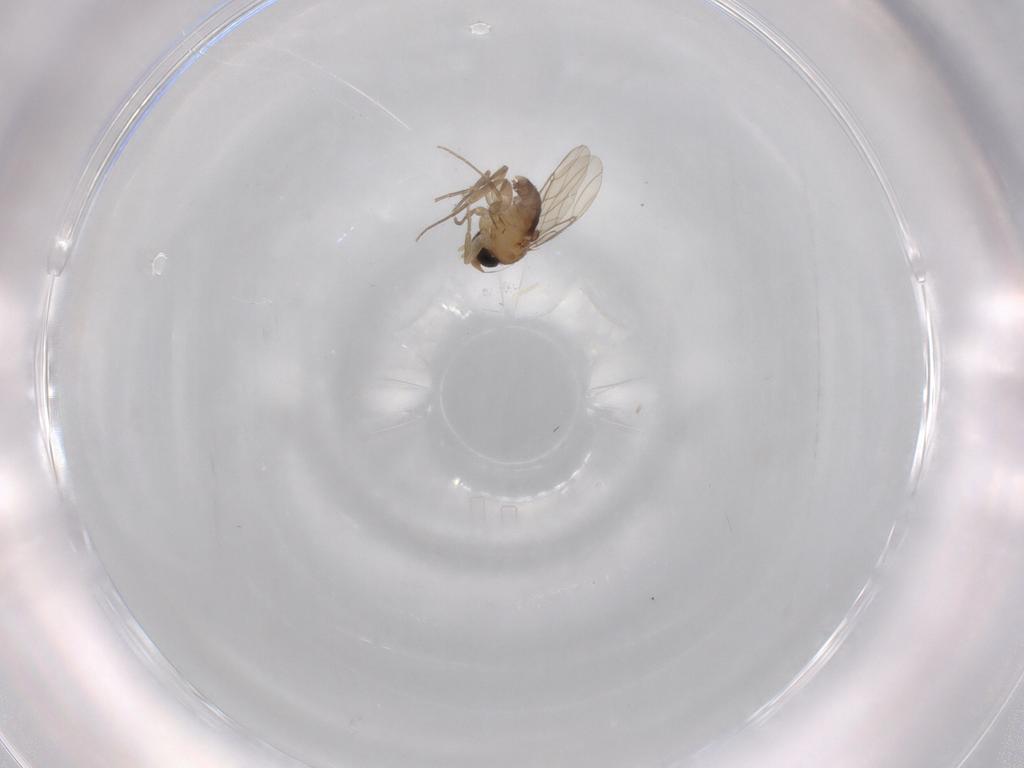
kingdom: Animalia
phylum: Arthropoda
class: Insecta
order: Diptera
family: Phoridae
